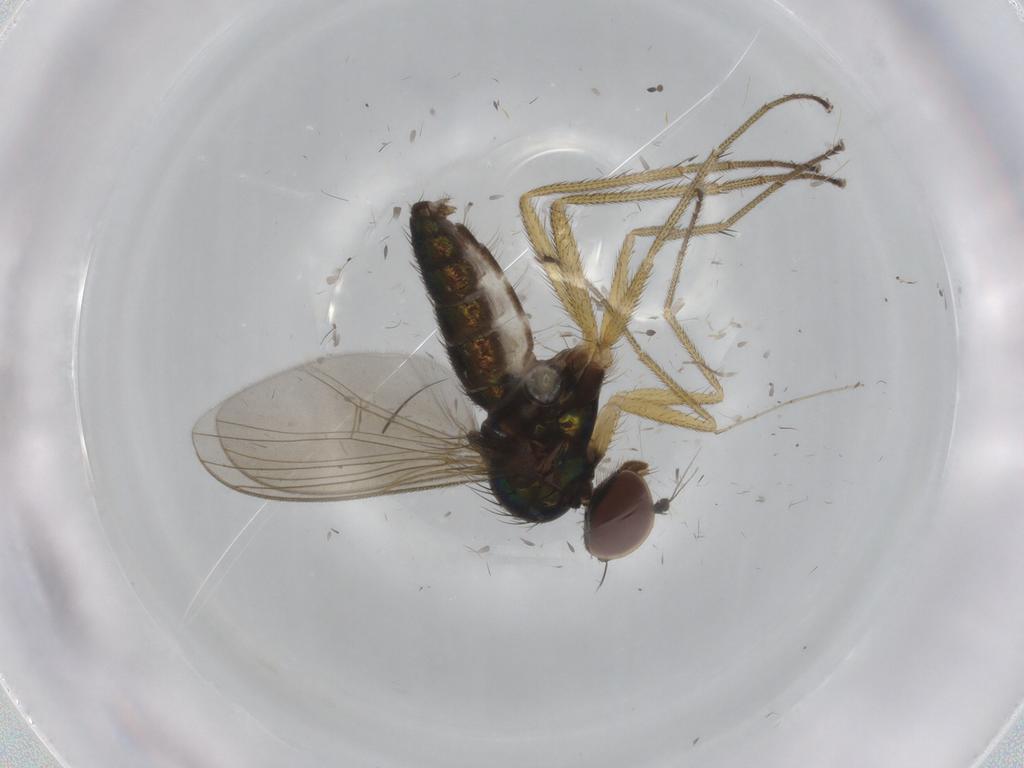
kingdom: Animalia
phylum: Arthropoda
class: Insecta
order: Diptera
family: Dolichopodidae
